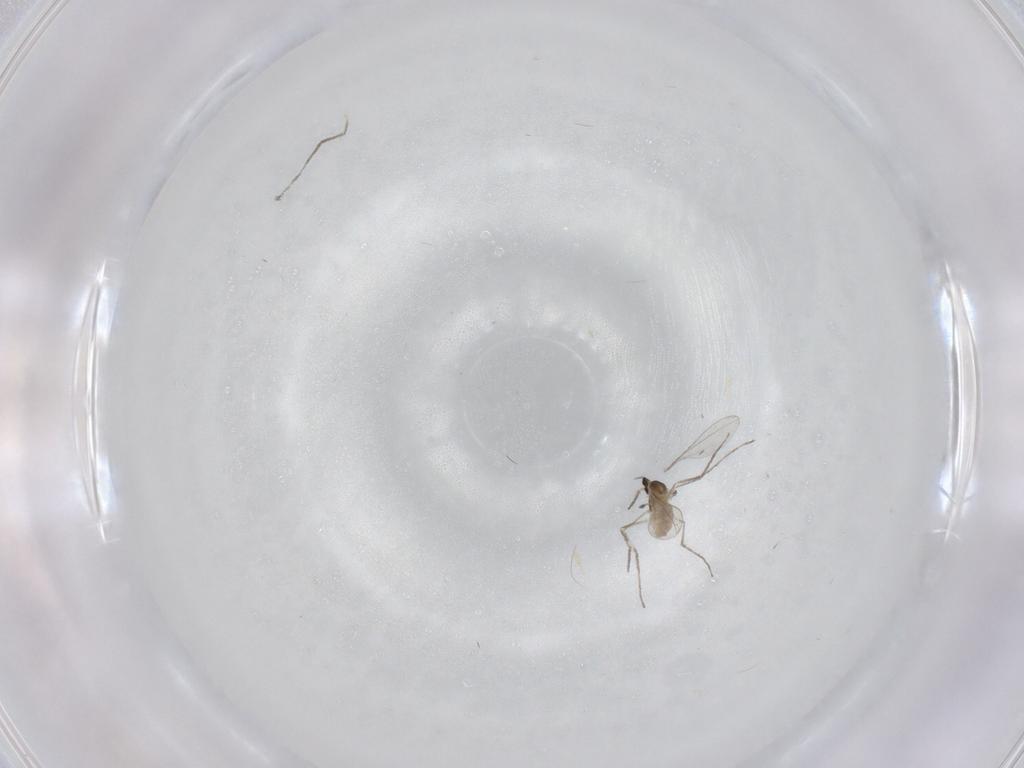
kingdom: Animalia
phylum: Arthropoda
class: Insecta
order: Diptera
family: Cecidomyiidae
